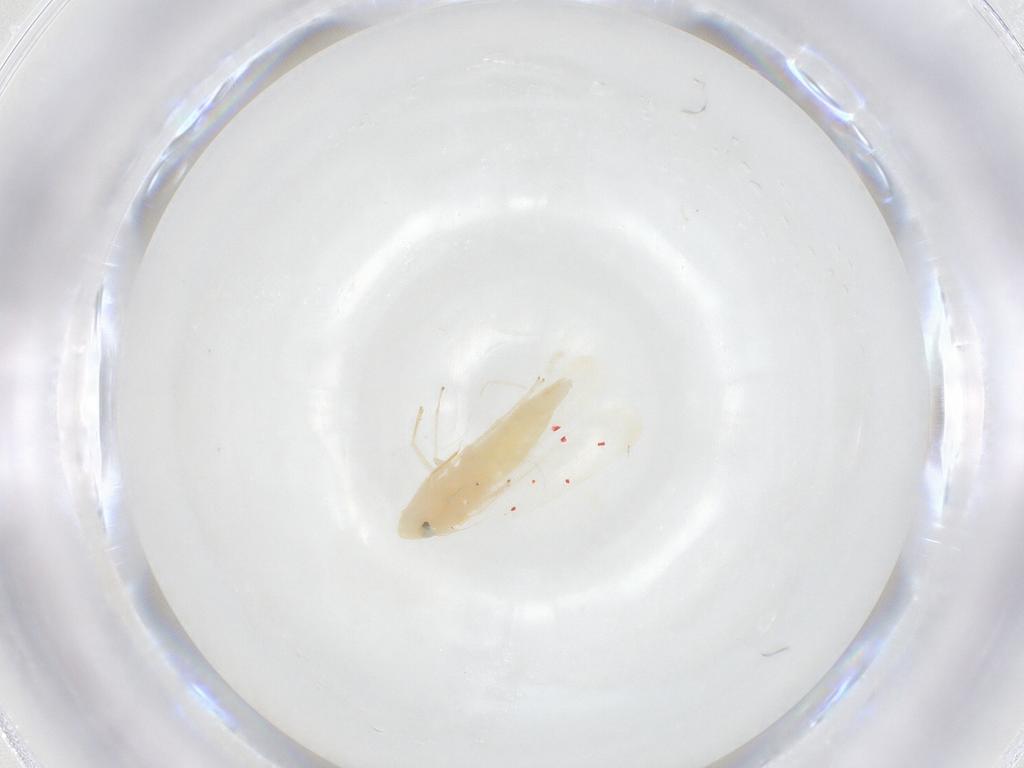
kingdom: Animalia
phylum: Arthropoda
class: Insecta
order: Hemiptera
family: Cicadellidae
